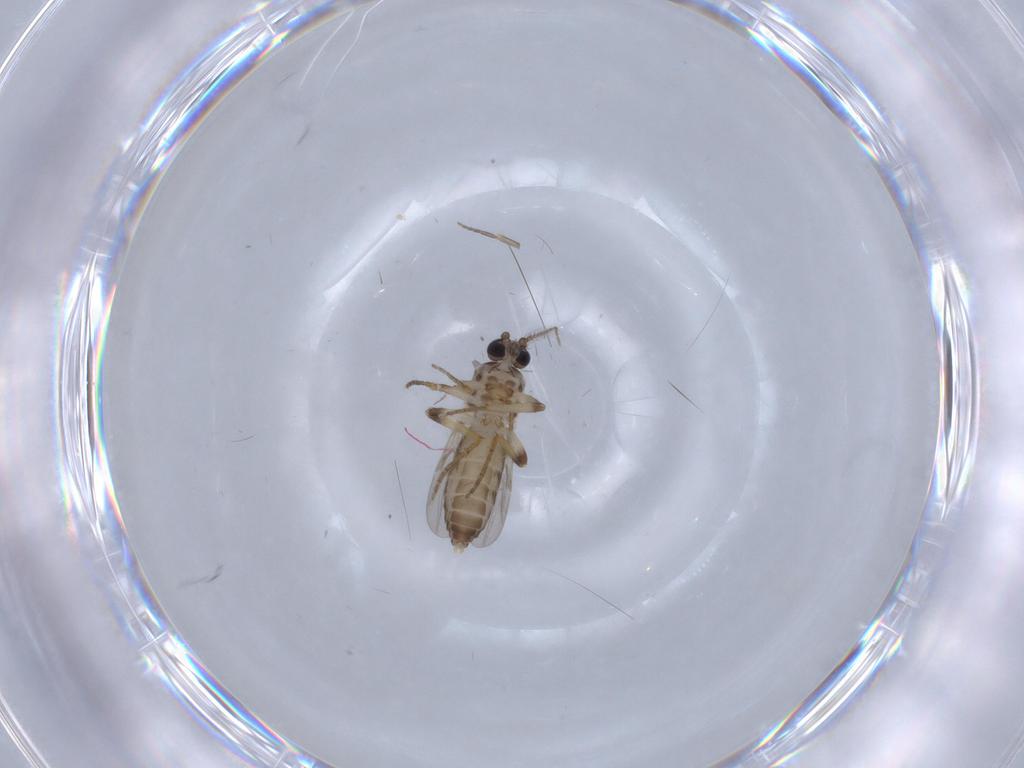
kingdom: Animalia
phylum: Arthropoda
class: Insecta
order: Diptera
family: Ceratopogonidae
